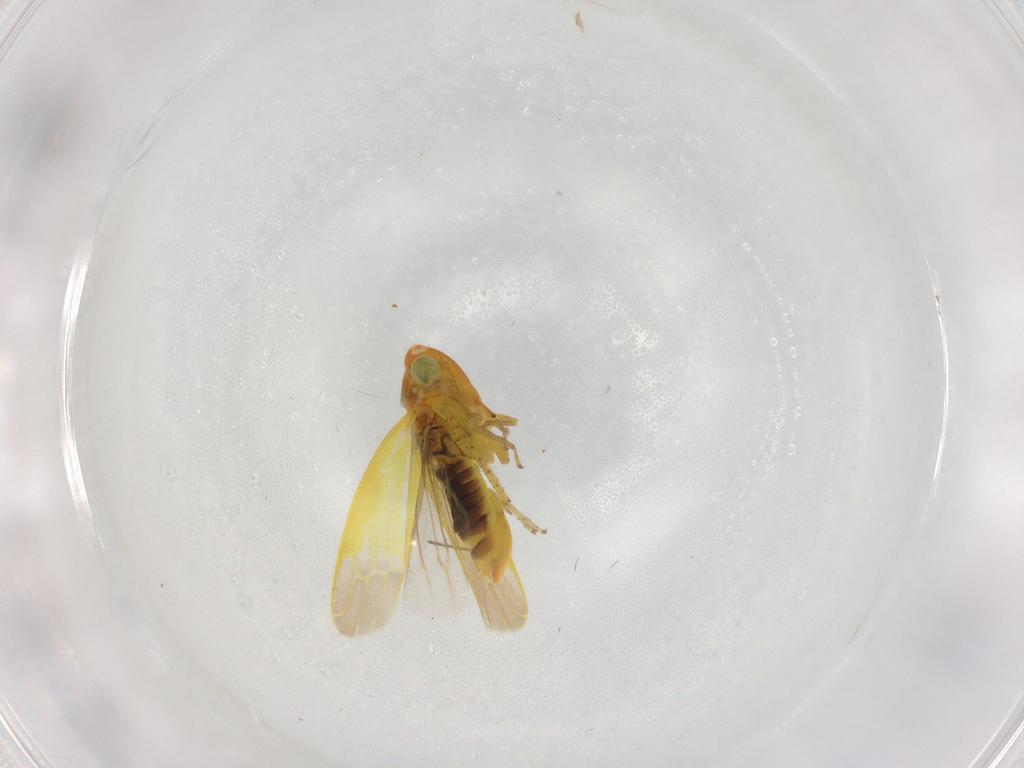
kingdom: Animalia
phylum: Arthropoda
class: Insecta
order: Hemiptera
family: Cicadellidae
